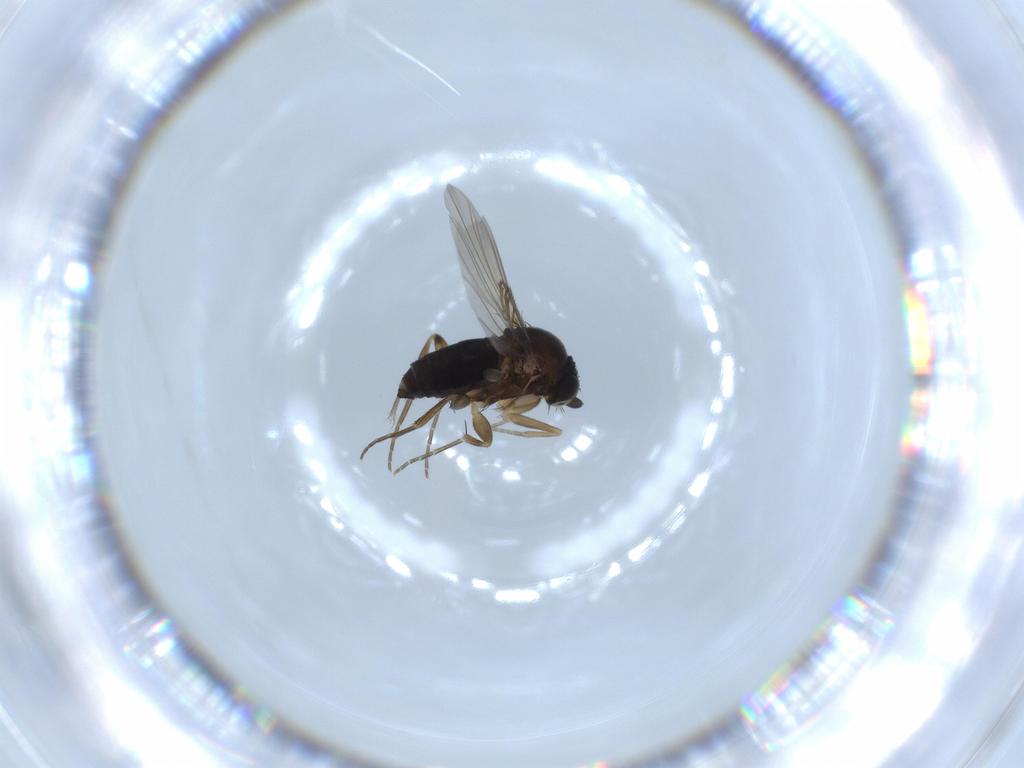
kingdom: Animalia
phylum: Arthropoda
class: Insecta
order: Diptera
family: Phoridae
